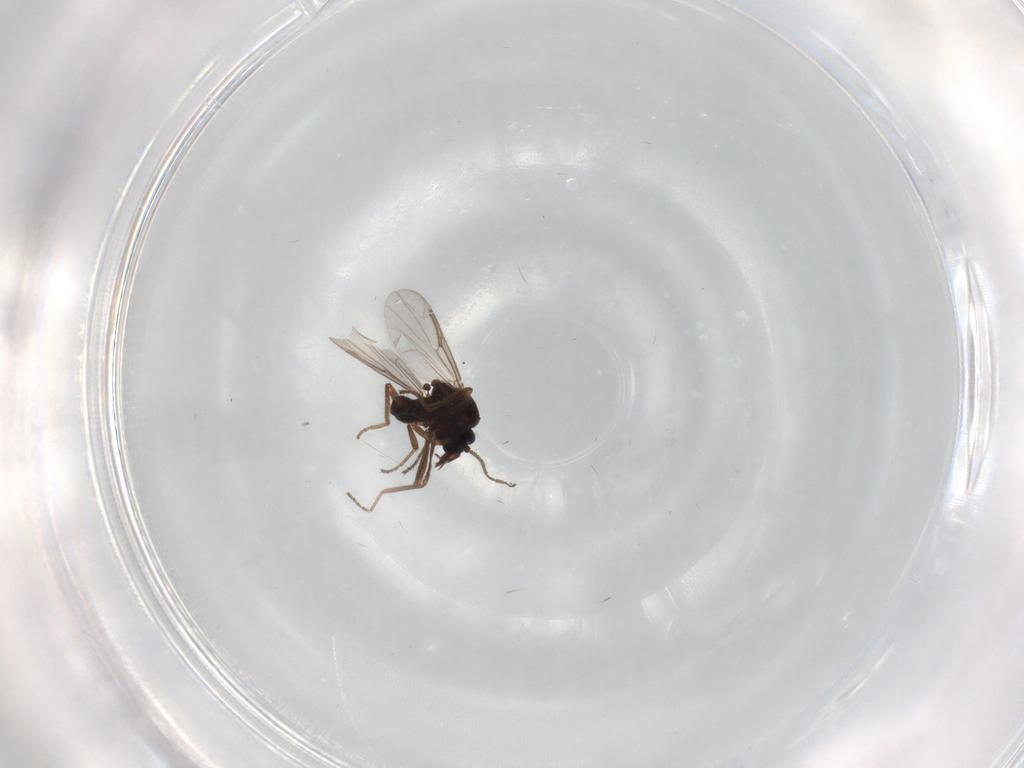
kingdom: Animalia
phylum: Arthropoda
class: Insecta
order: Diptera
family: Ceratopogonidae
